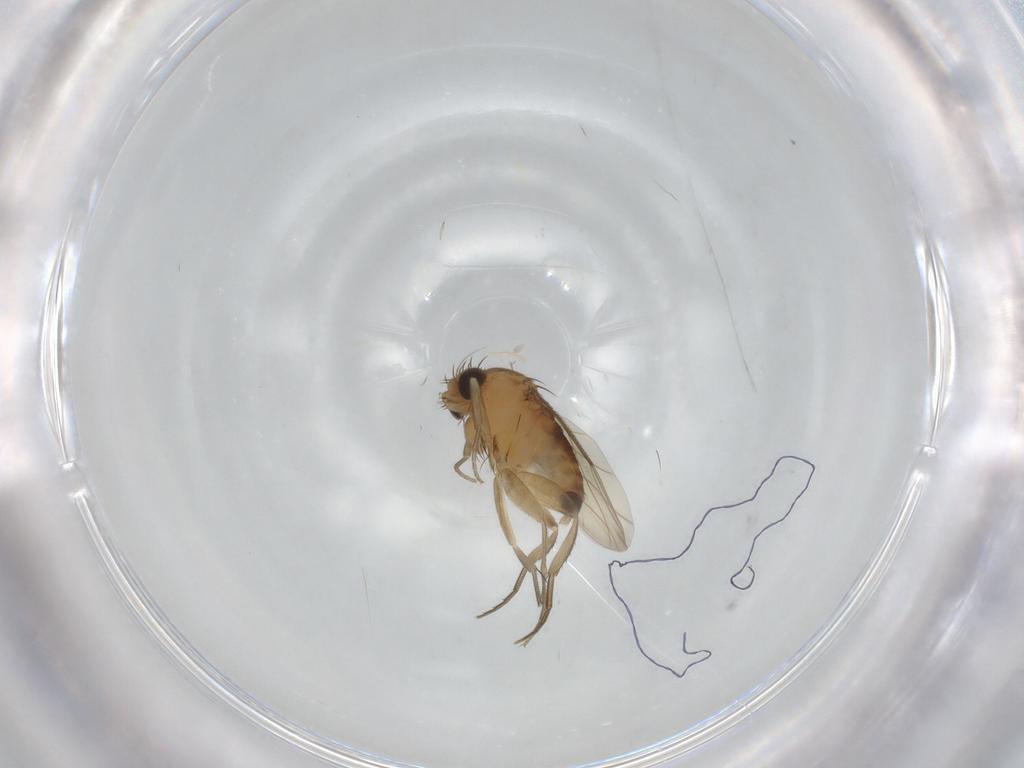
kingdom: Animalia
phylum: Arthropoda
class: Insecta
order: Diptera
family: Phoridae
